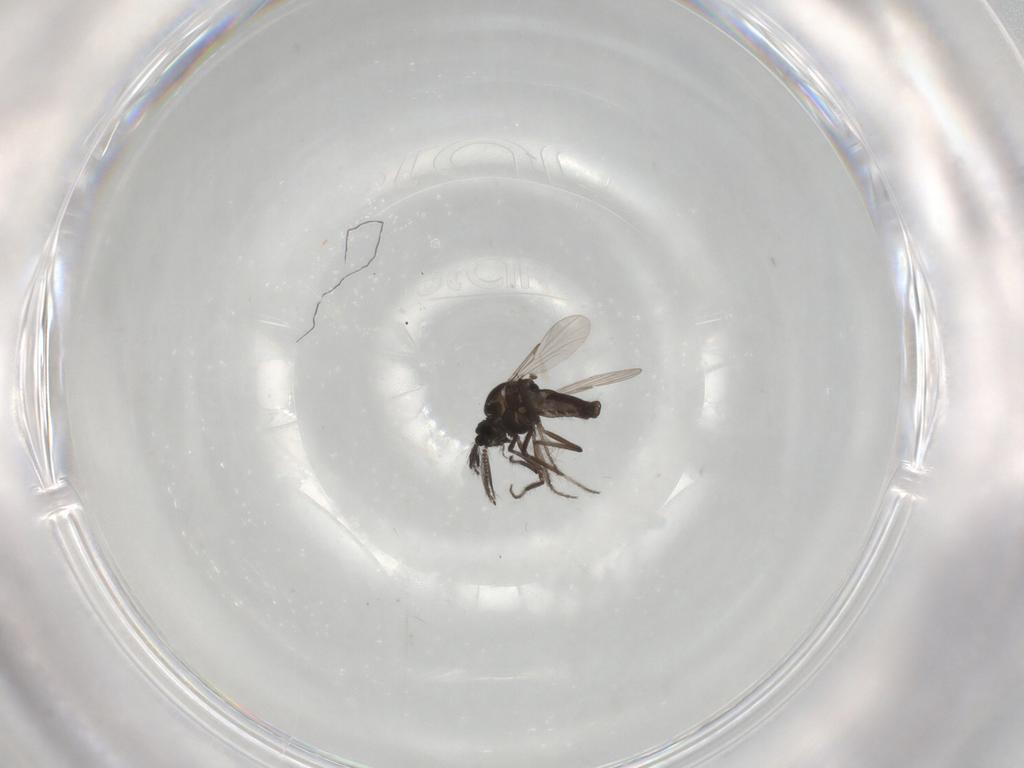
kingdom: Animalia
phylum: Arthropoda
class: Insecta
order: Diptera
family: Ceratopogonidae
